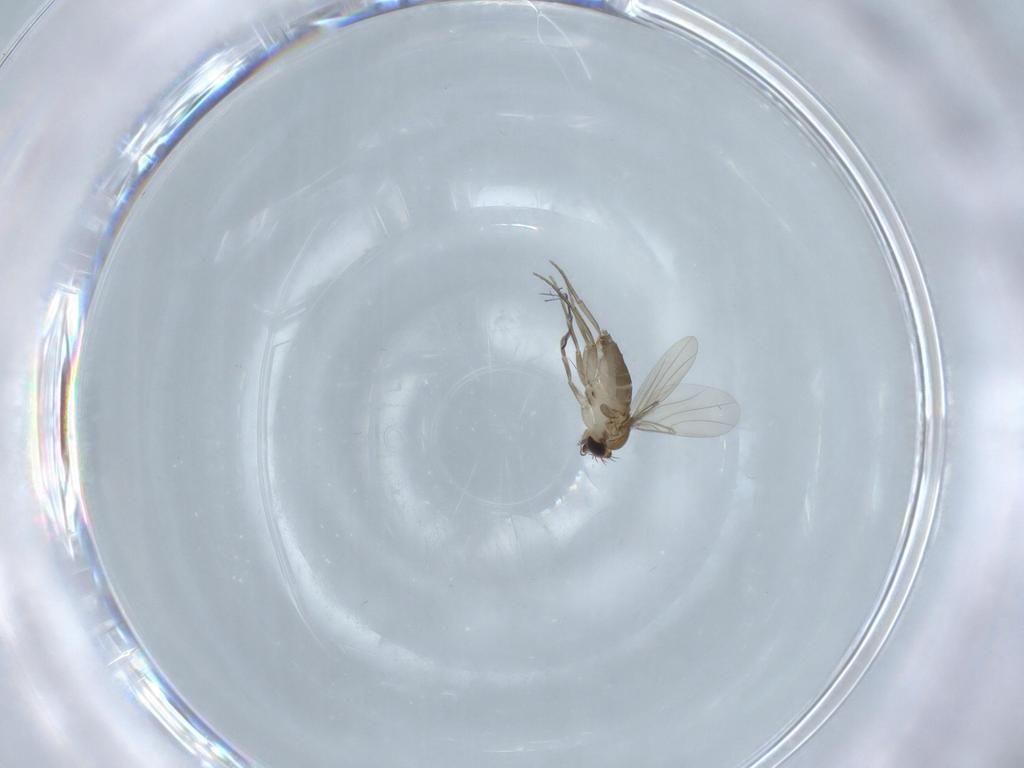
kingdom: Animalia
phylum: Arthropoda
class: Insecta
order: Diptera
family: Phoridae
